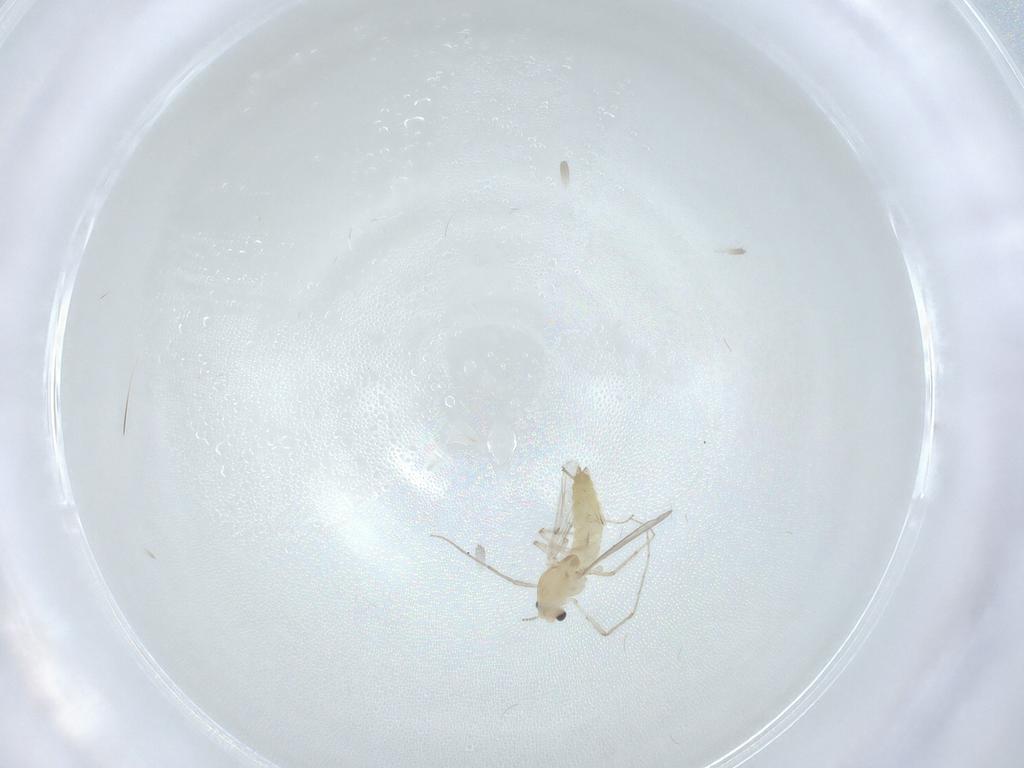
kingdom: Animalia
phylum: Arthropoda
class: Insecta
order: Diptera
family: Chironomidae
